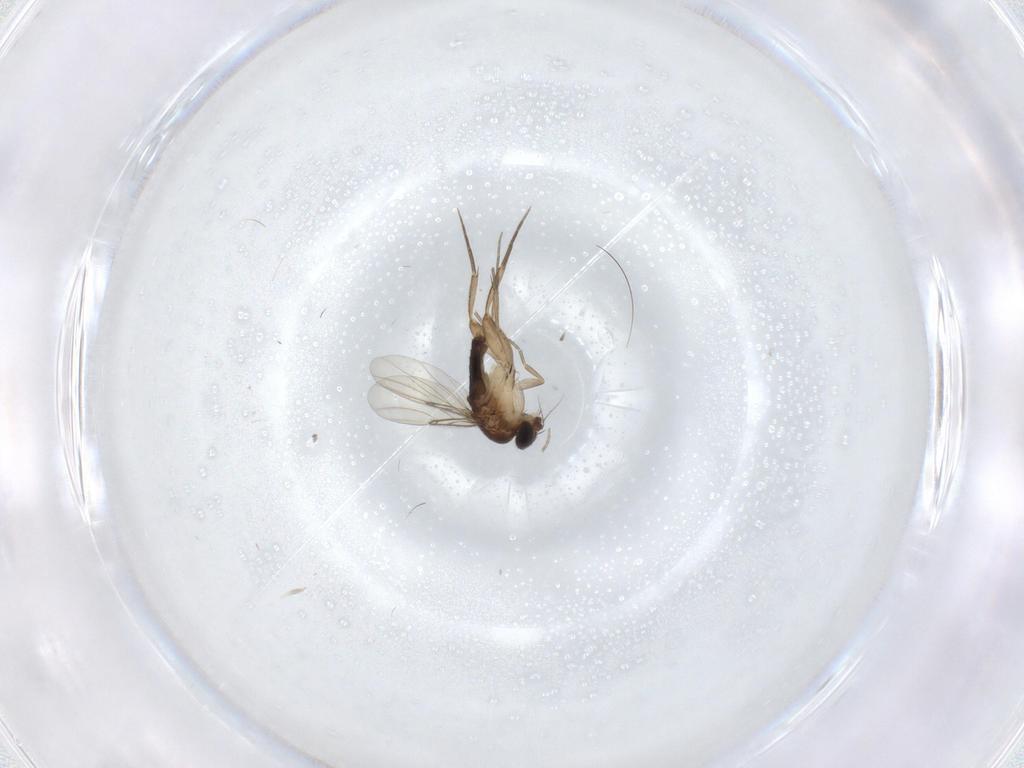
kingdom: Animalia
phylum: Arthropoda
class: Insecta
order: Diptera
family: Phoridae
